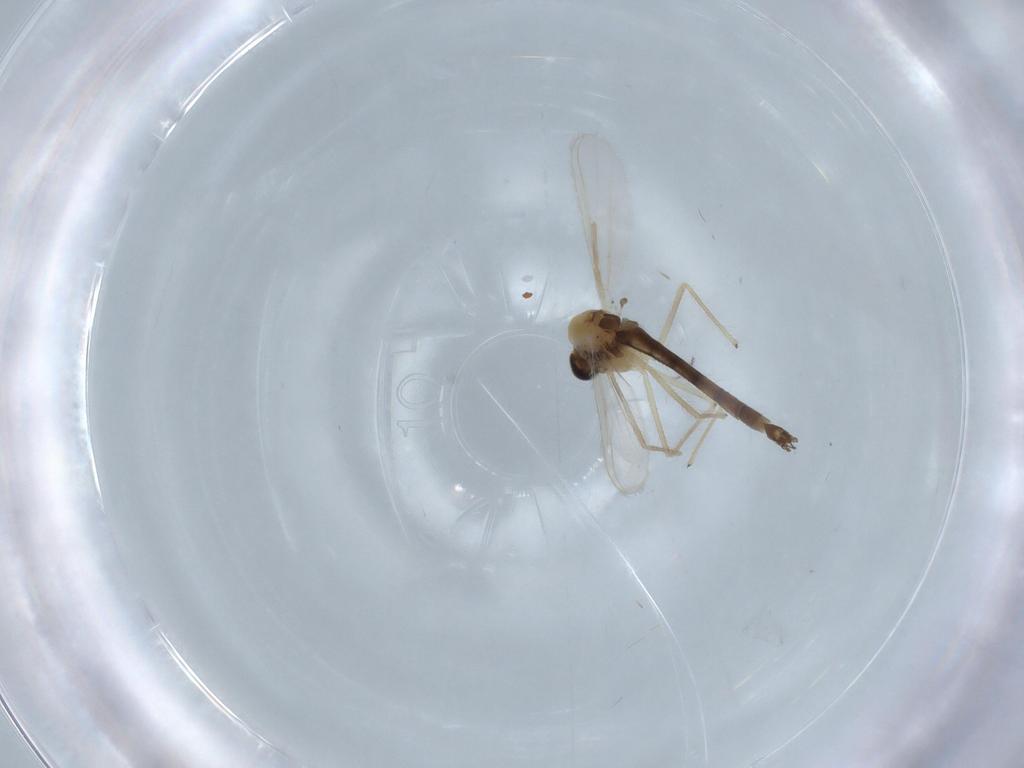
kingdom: Animalia
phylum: Arthropoda
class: Insecta
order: Diptera
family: Chironomidae
